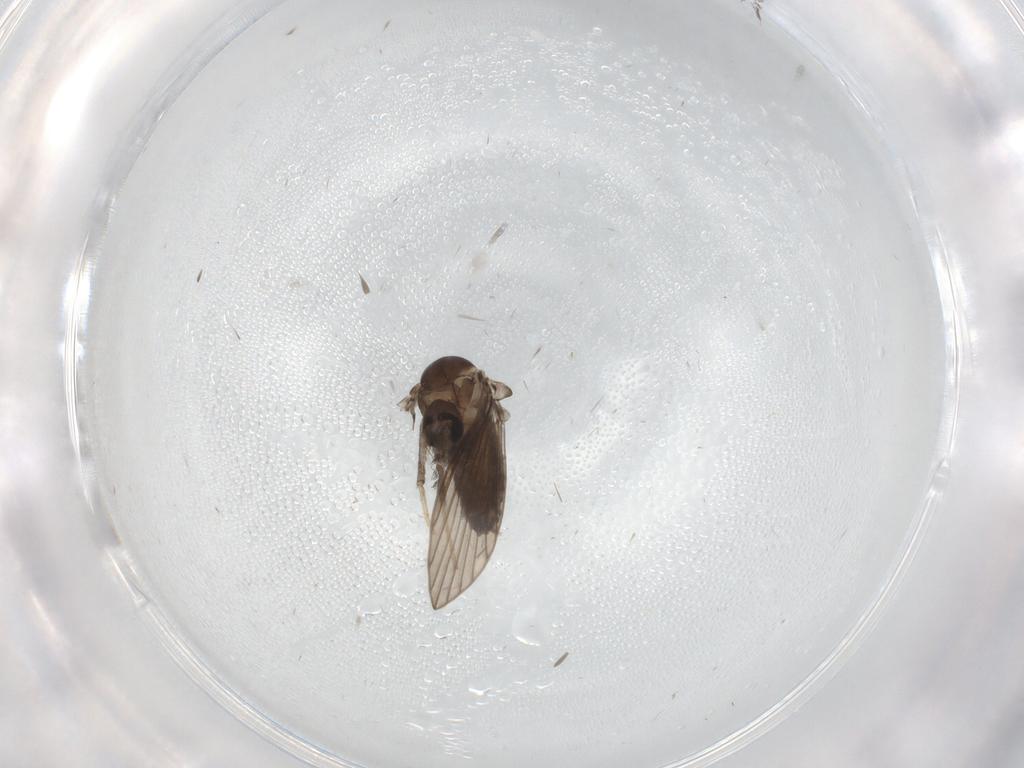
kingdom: Animalia
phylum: Arthropoda
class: Insecta
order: Diptera
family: Psychodidae
